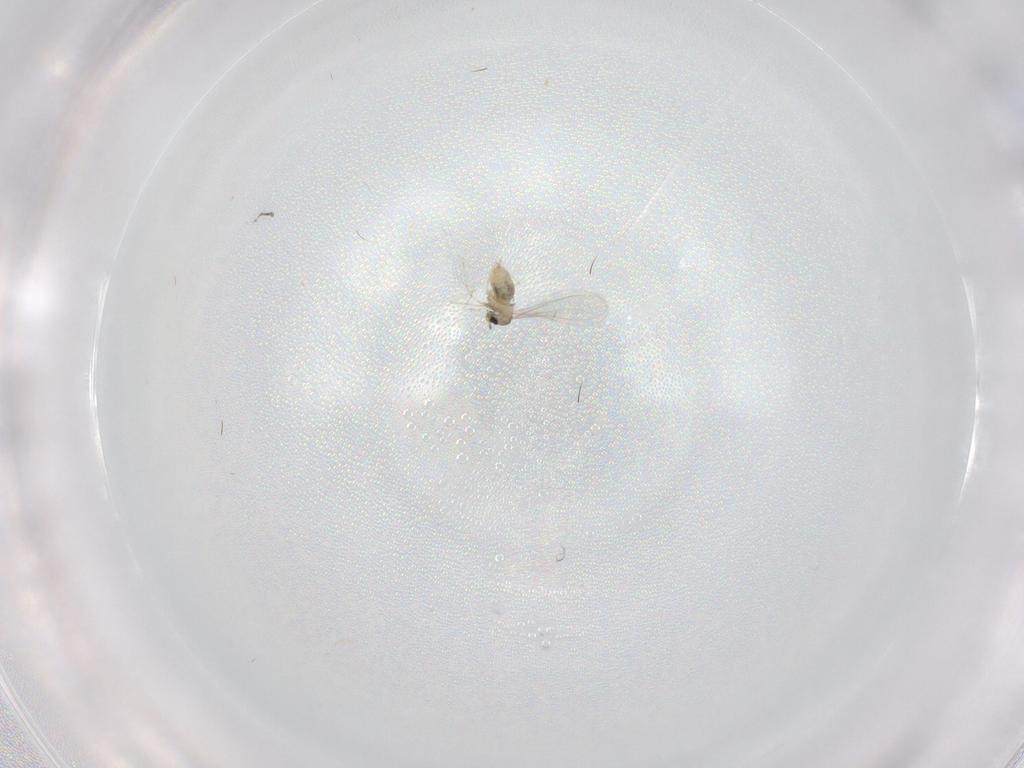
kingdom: Animalia
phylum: Arthropoda
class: Insecta
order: Diptera
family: Cecidomyiidae
